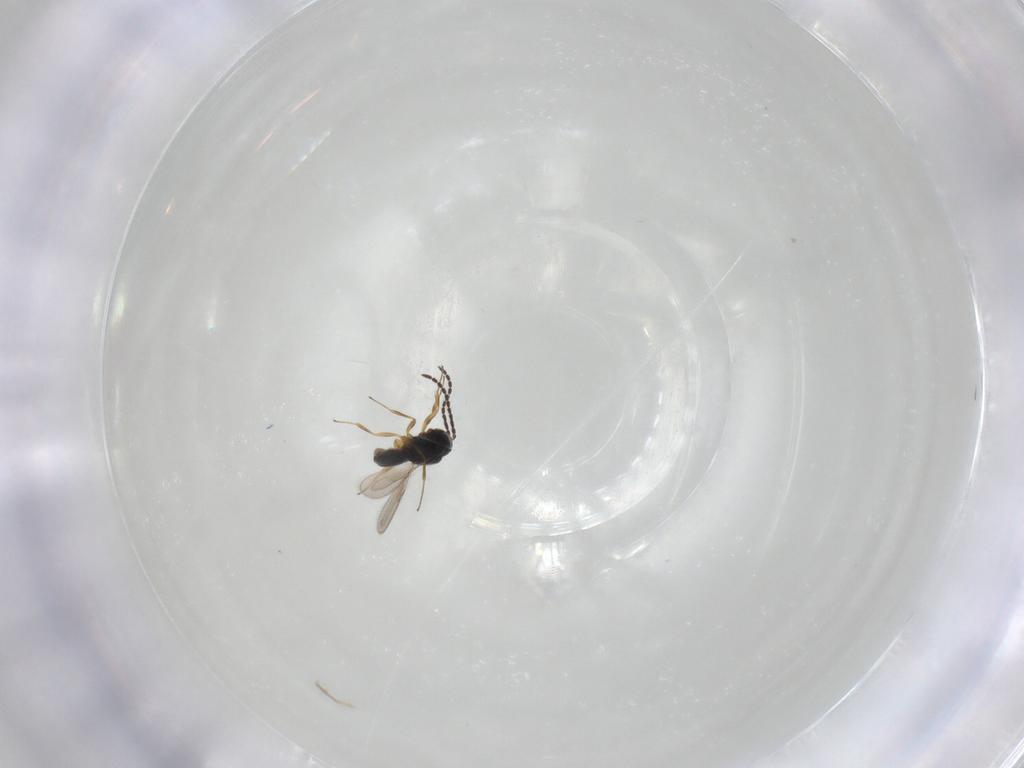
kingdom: Animalia
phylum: Arthropoda
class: Insecta
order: Hymenoptera
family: Scelionidae
